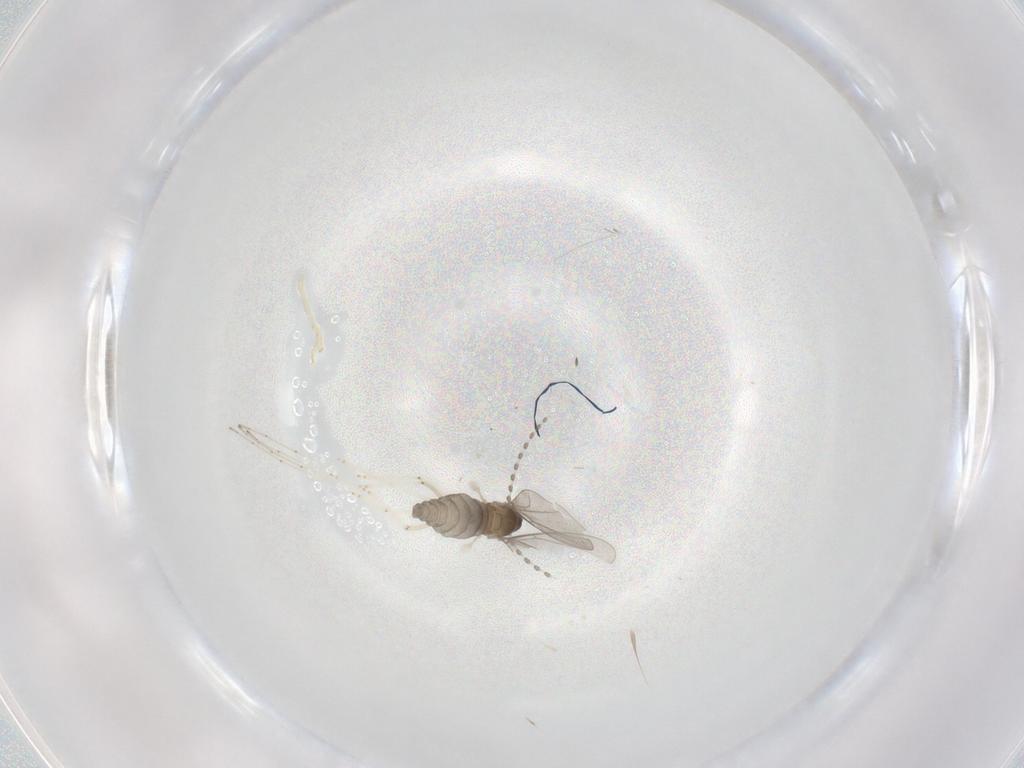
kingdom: Animalia
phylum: Arthropoda
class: Insecta
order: Diptera
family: Cecidomyiidae
